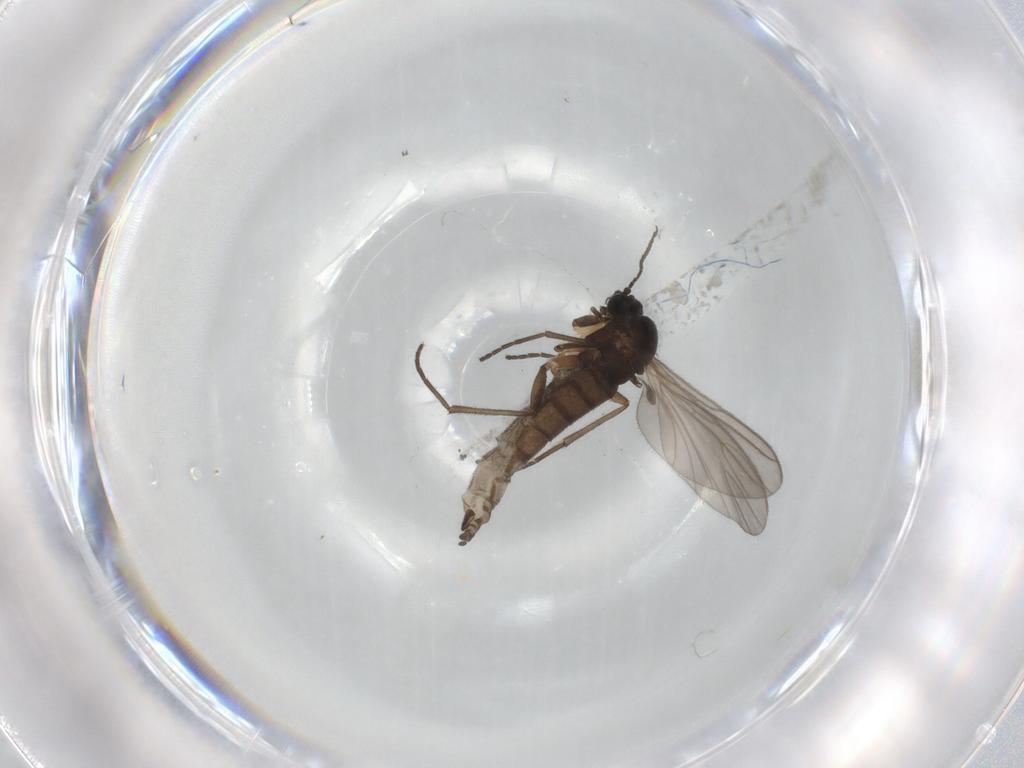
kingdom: Animalia
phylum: Arthropoda
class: Insecta
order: Diptera
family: Sciaridae
